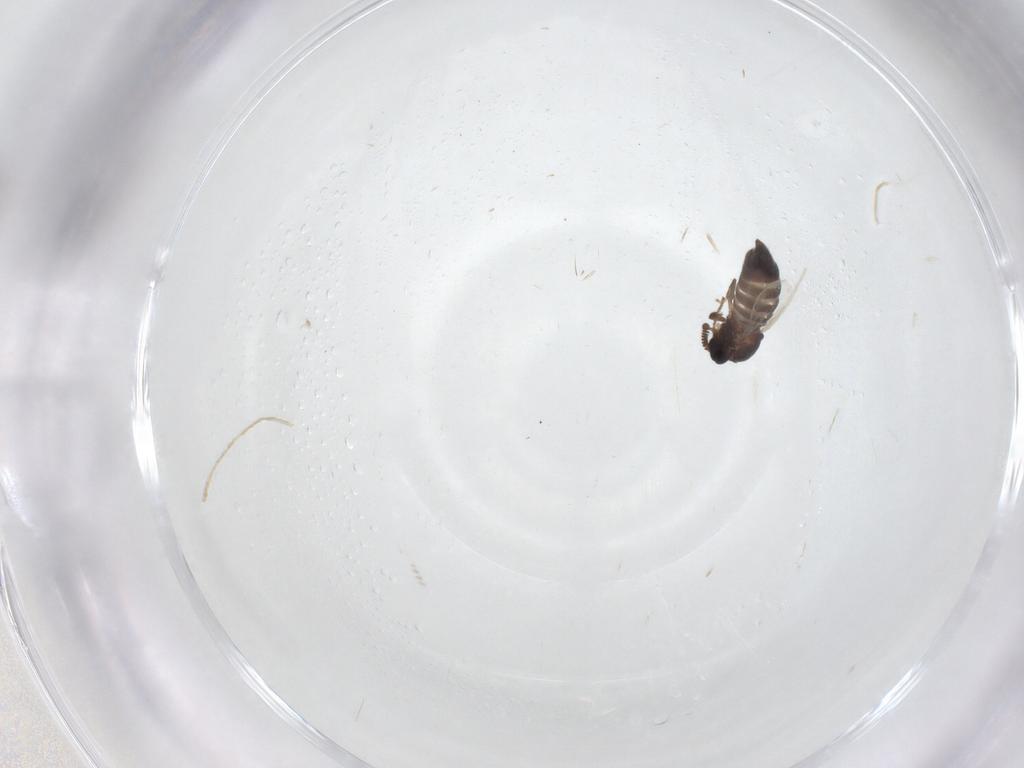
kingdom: Animalia
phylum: Arthropoda
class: Insecta
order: Diptera
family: Scatopsidae
